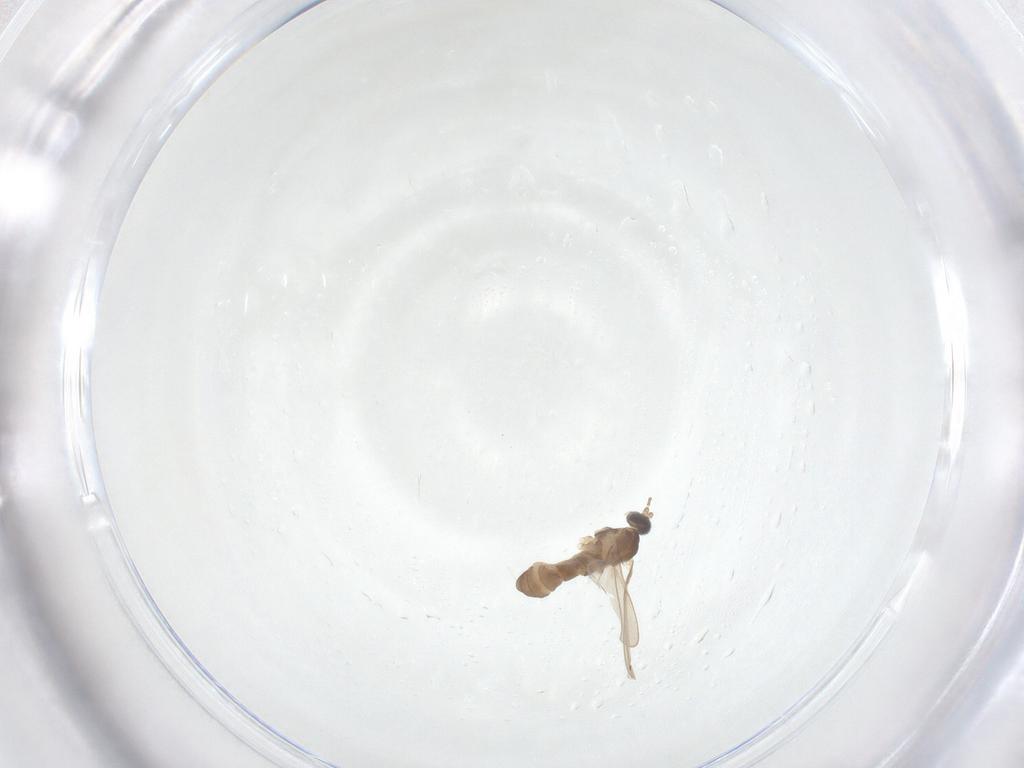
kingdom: Animalia
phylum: Arthropoda
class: Insecta
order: Diptera
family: Cecidomyiidae
